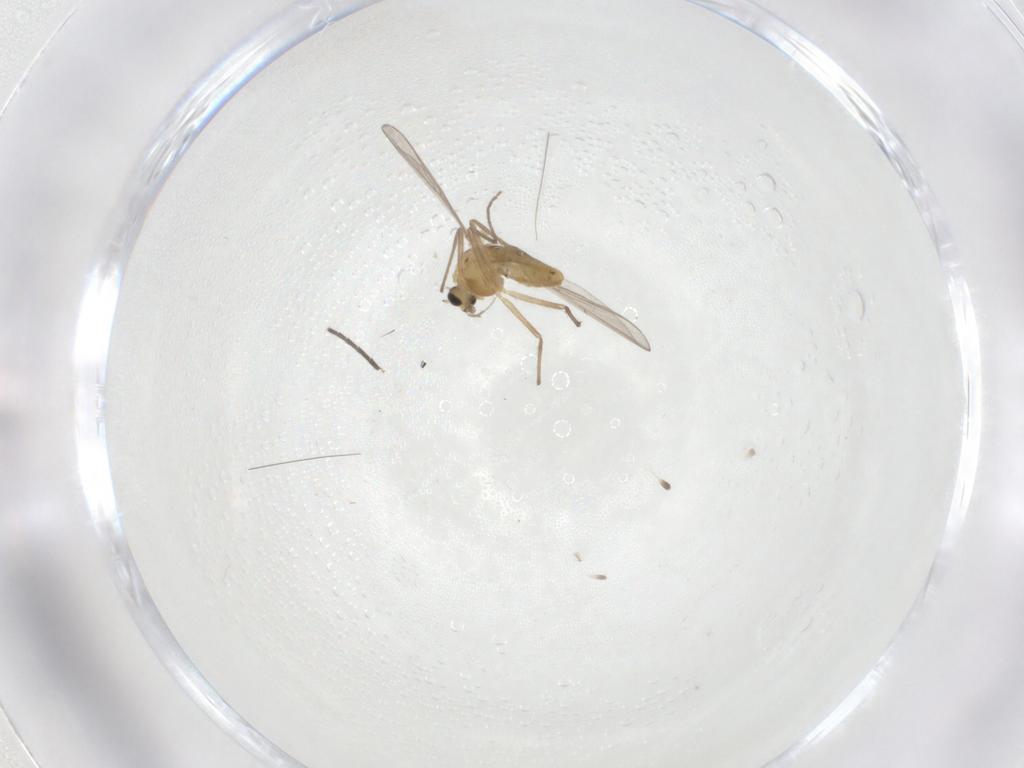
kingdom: Animalia
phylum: Arthropoda
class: Insecta
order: Diptera
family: Chironomidae
